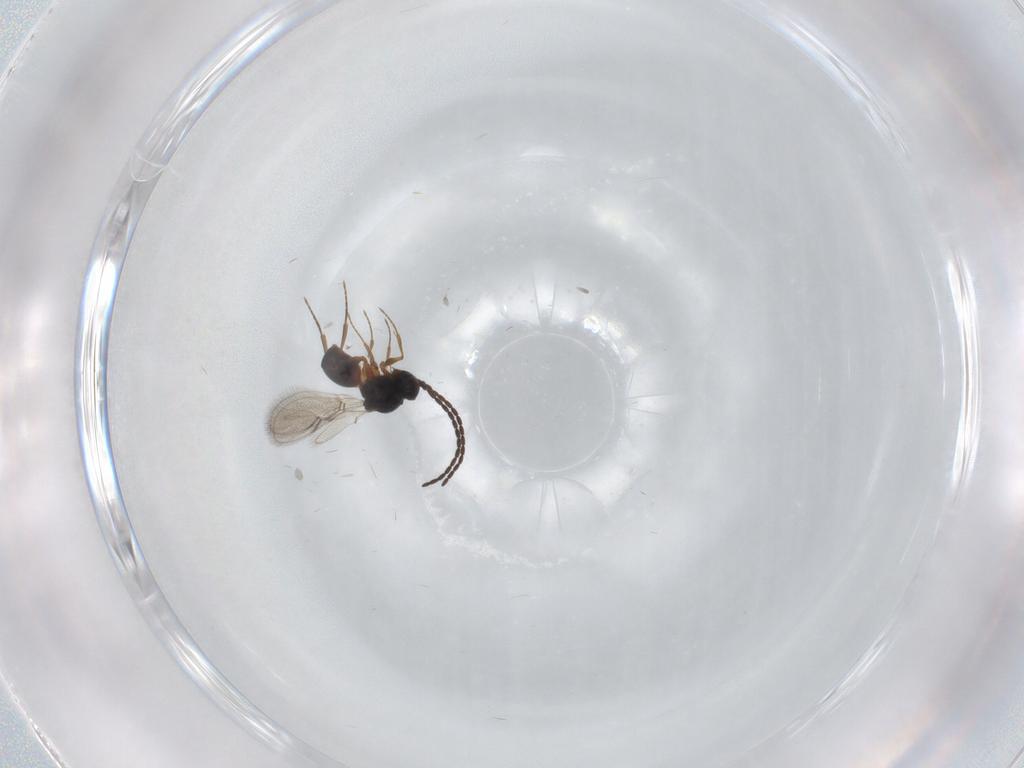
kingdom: Animalia
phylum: Arthropoda
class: Insecta
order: Hymenoptera
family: Figitidae
